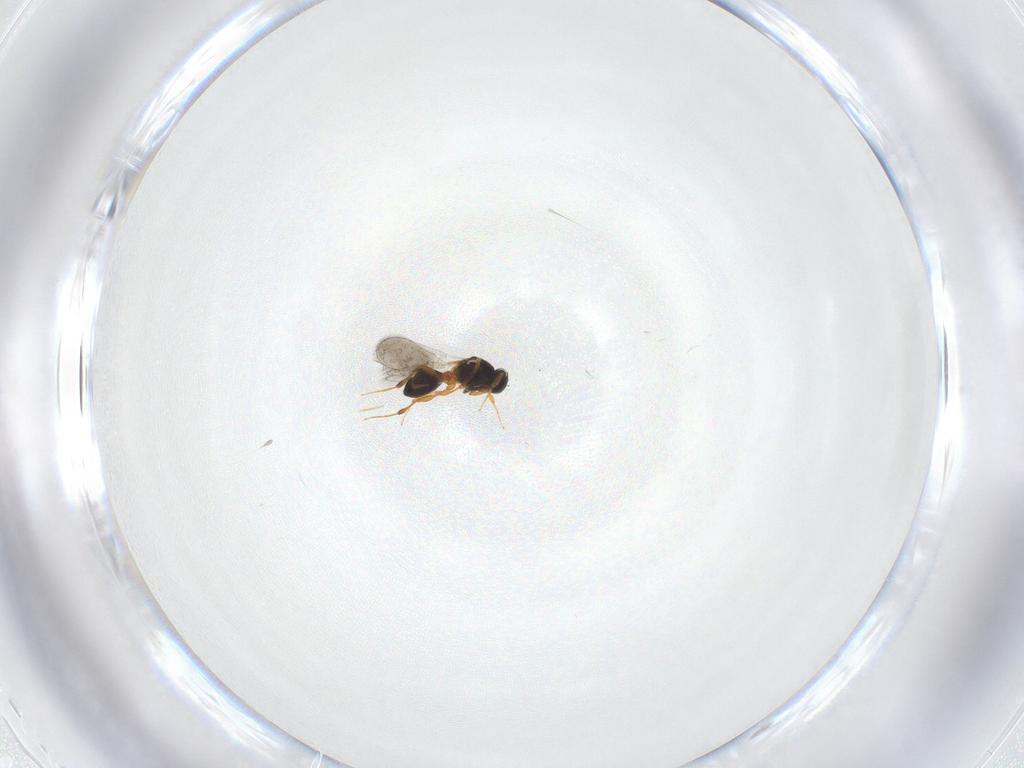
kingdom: Animalia
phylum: Arthropoda
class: Insecta
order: Hymenoptera
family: Platygastridae
